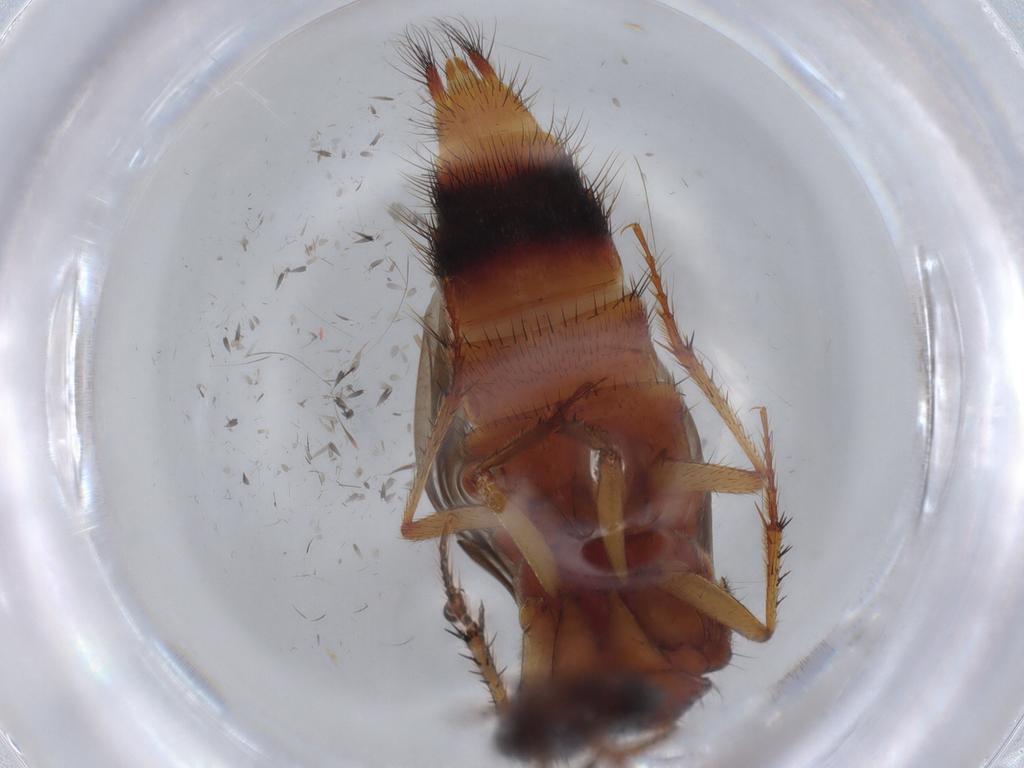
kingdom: Animalia
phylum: Arthropoda
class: Insecta
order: Coleoptera
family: Staphylinidae
